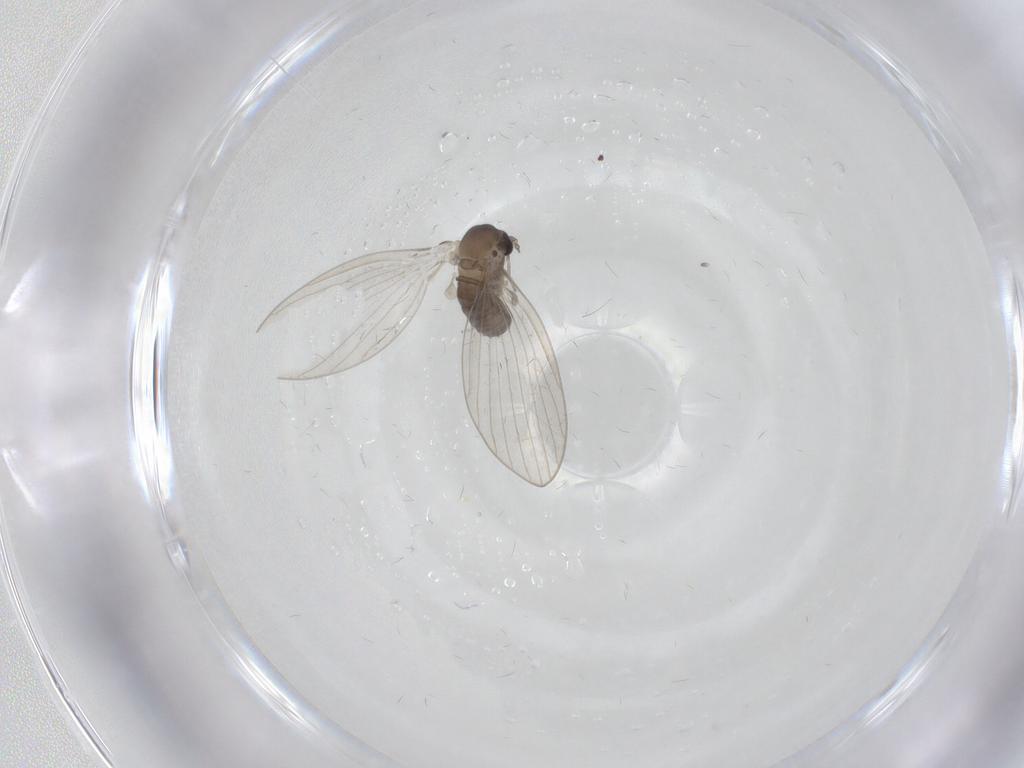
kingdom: Animalia
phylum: Arthropoda
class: Insecta
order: Diptera
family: Psychodidae
